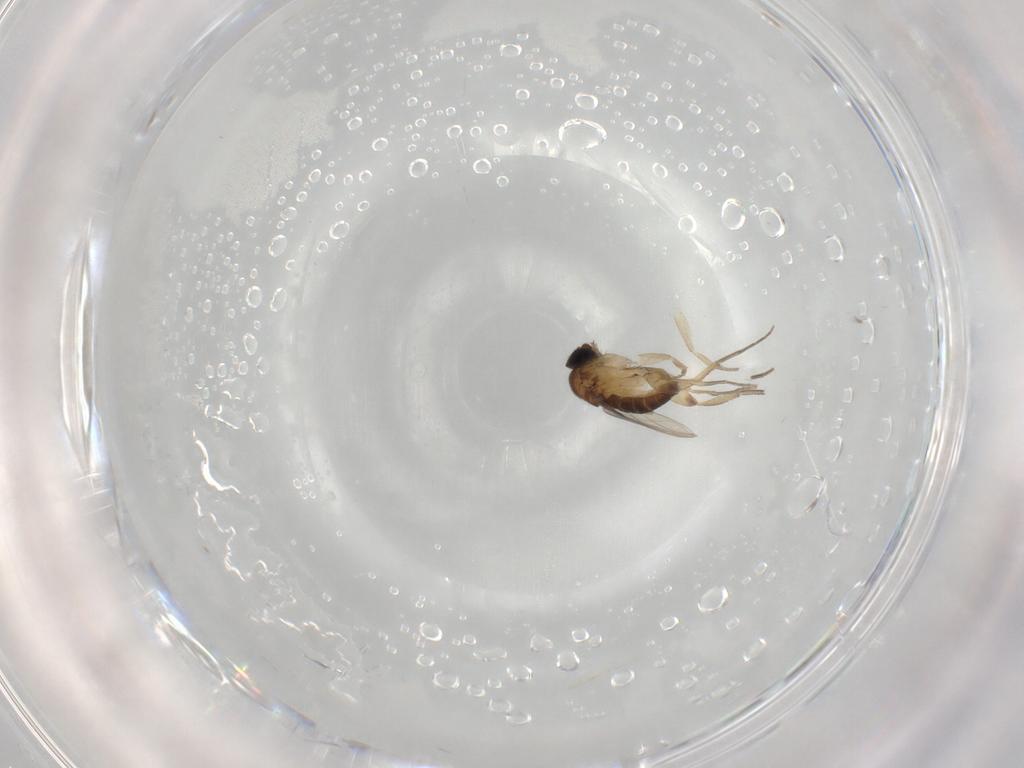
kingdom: Animalia
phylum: Arthropoda
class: Insecta
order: Diptera
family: Phoridae
